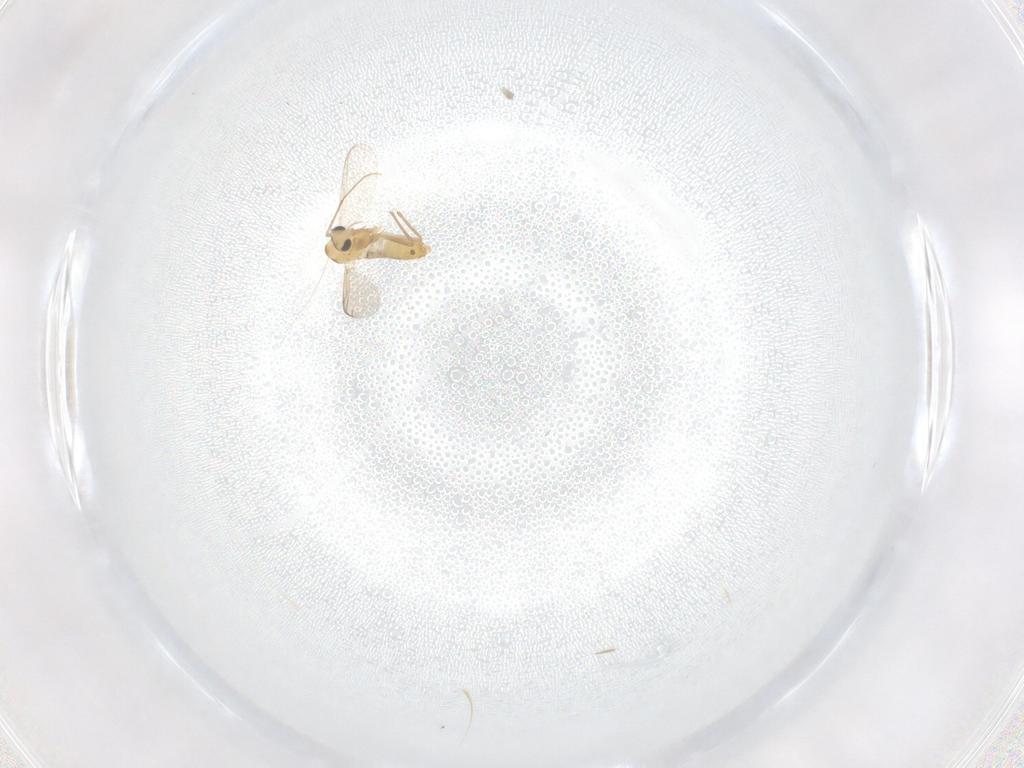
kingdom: Animalia
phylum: Arthropoda
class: Insecta
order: Diptera
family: Chironomidae
